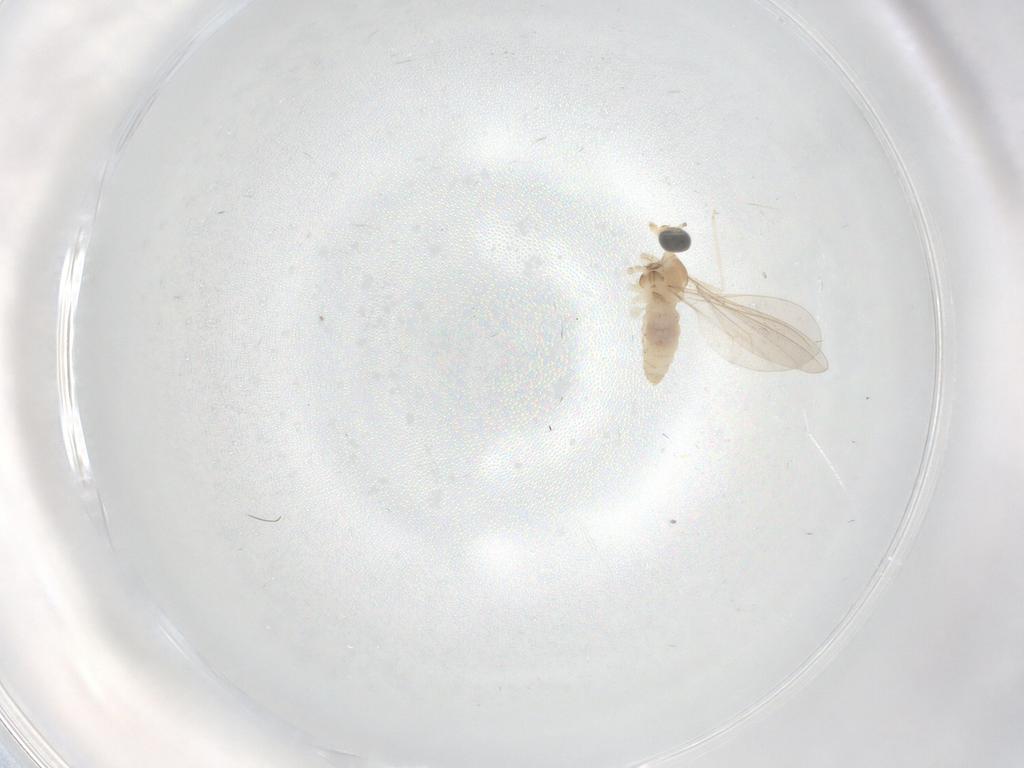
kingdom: Animalia
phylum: Arthropoda
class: Insecta
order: Diptera
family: Cecidomyiidae
